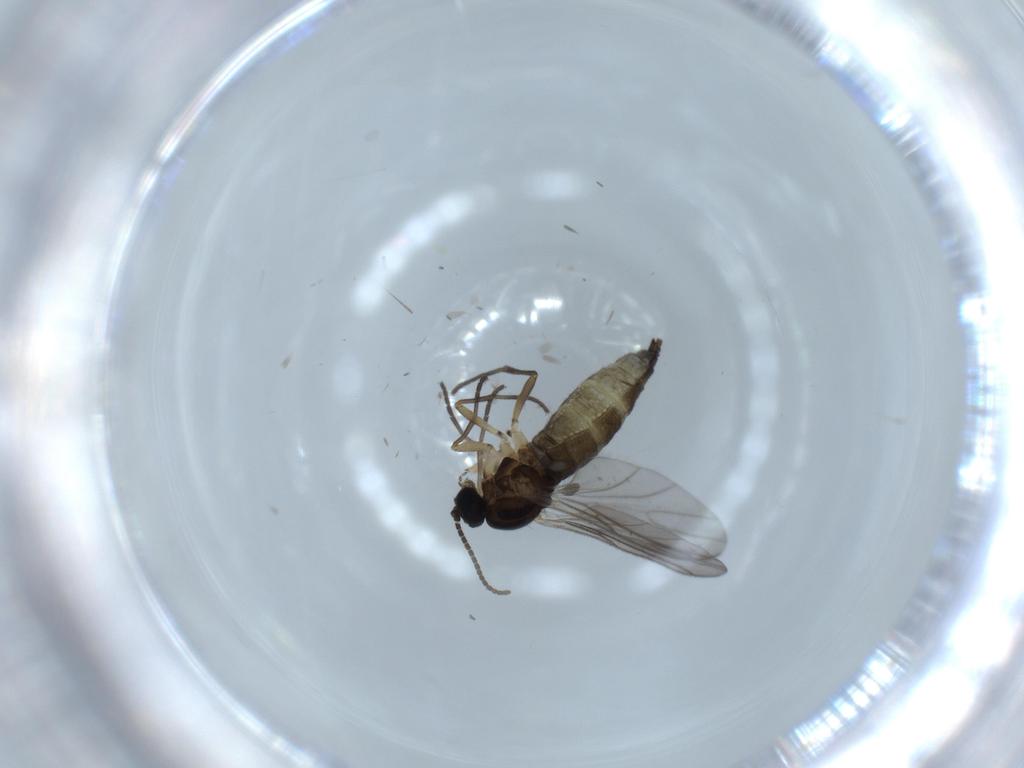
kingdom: Animalia
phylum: Arthropoda
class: Insecta
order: Diptera
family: Sciaridae
